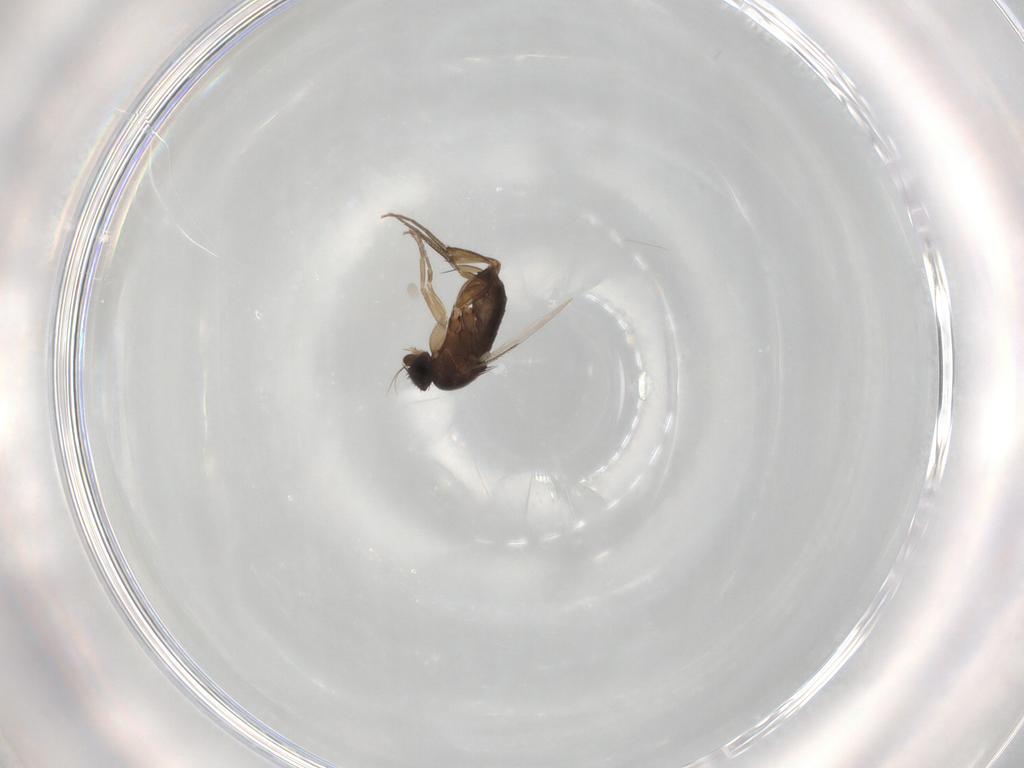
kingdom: Animalia
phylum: Arthropoda
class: Insecta
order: Diptera
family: Phoridae
